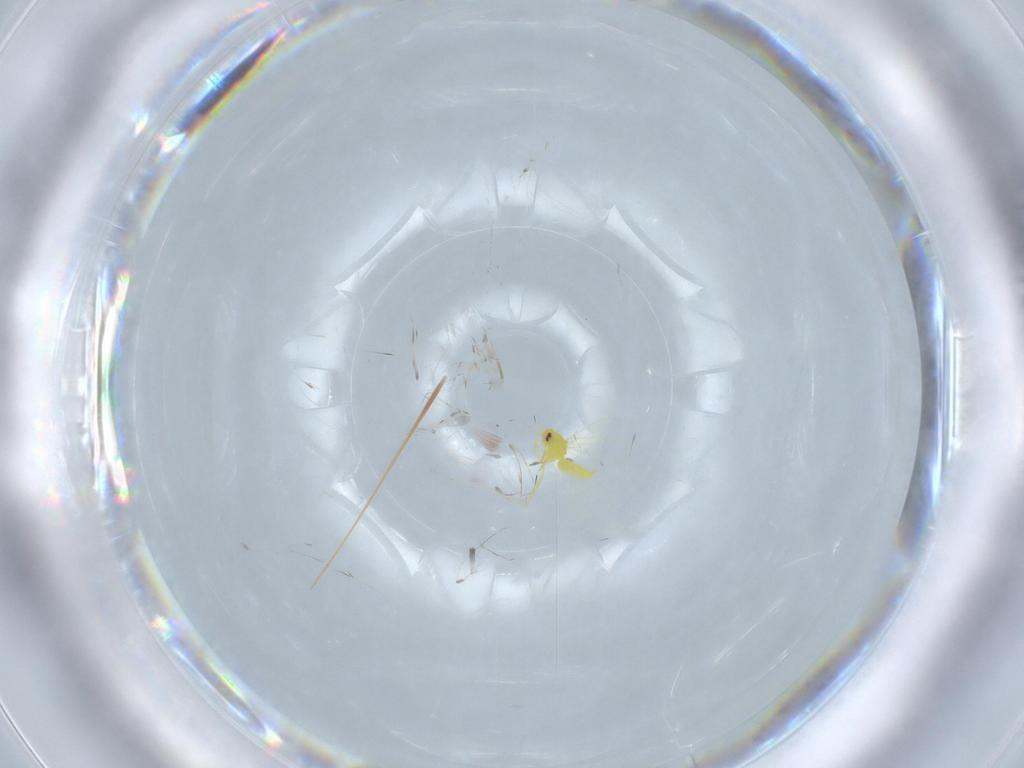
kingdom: Animalia
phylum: Arthropoda
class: Insecta
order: Hemiptera
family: Aleyrodidae
